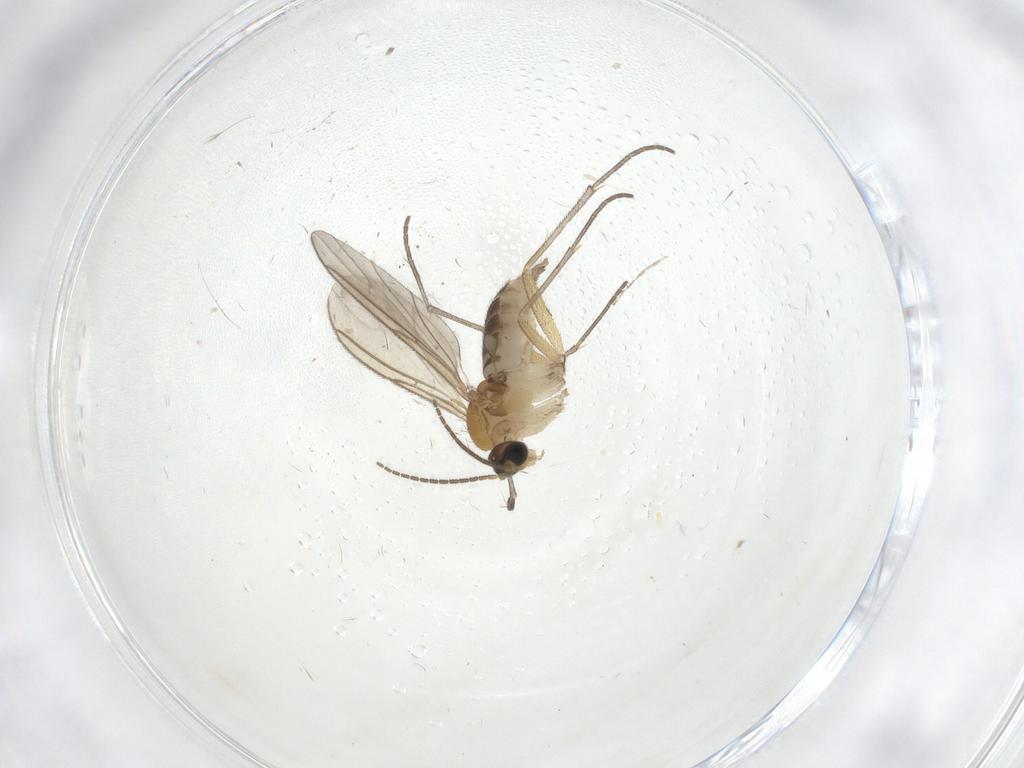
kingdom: Animalia
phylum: Arthropoda
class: Insecta
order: Diptera
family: Sciaridae
